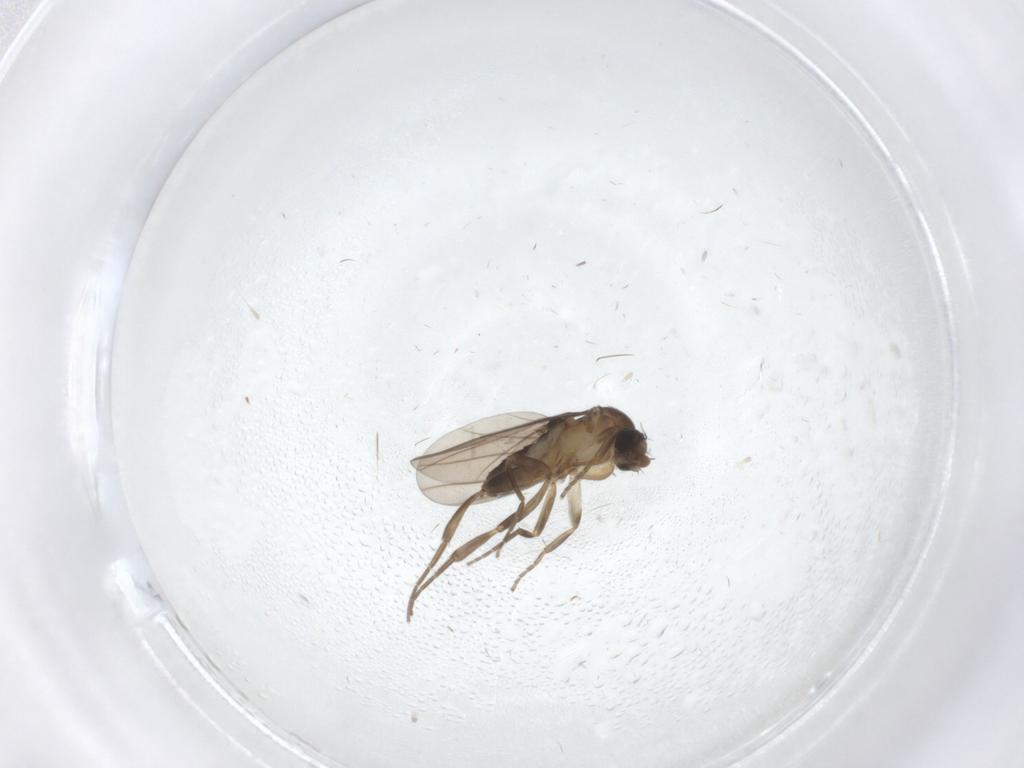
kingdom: Animalia
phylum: Arthropoda
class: Insecta
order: Diptera
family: Mycetophilidae
